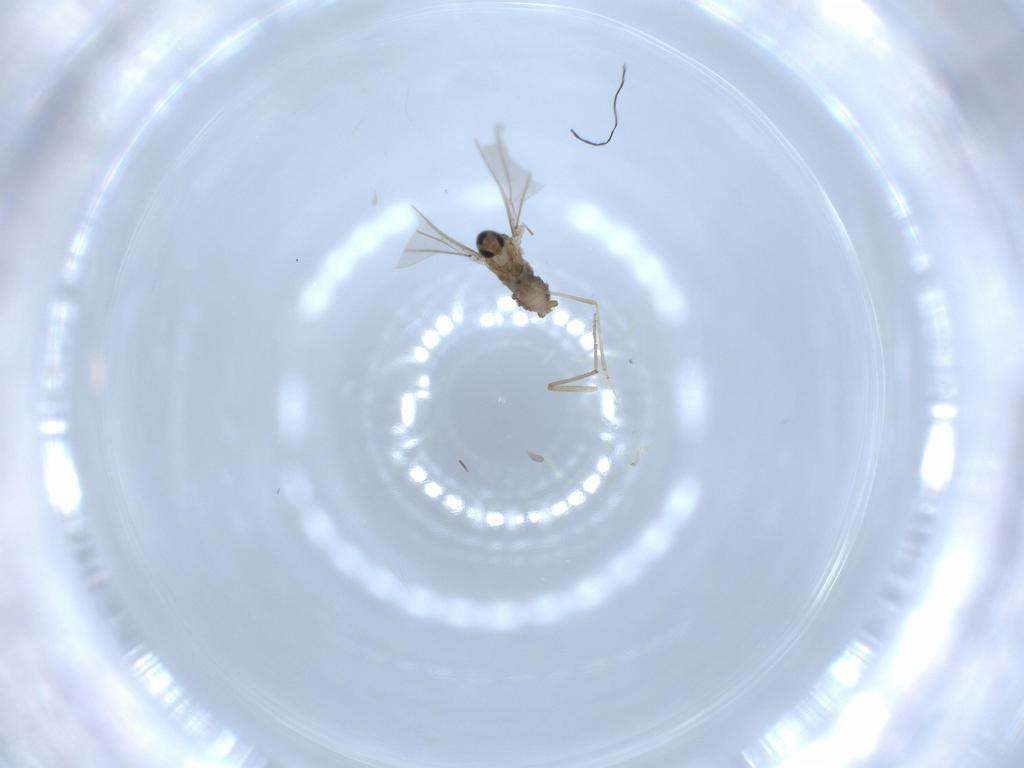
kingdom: Animalia
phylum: Arthropoda
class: Insecta
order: Diptera
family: Cecidomyiidae
